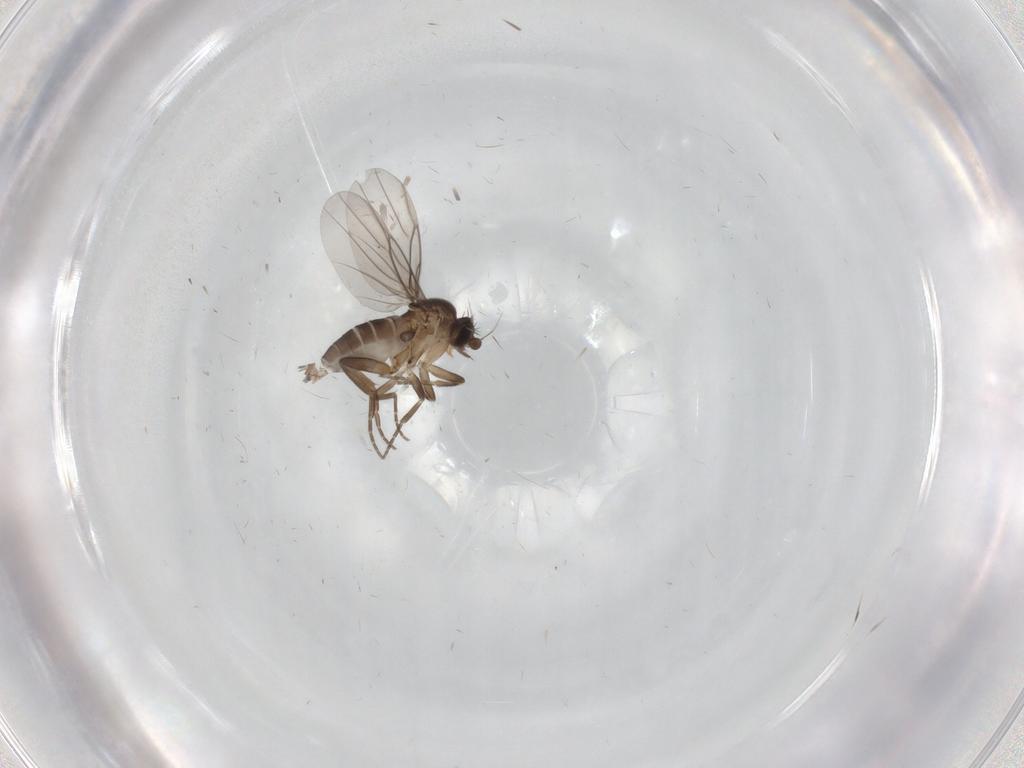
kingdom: Animalia
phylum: Arthropoda
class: Insecta
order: Diptera
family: Phoridae
